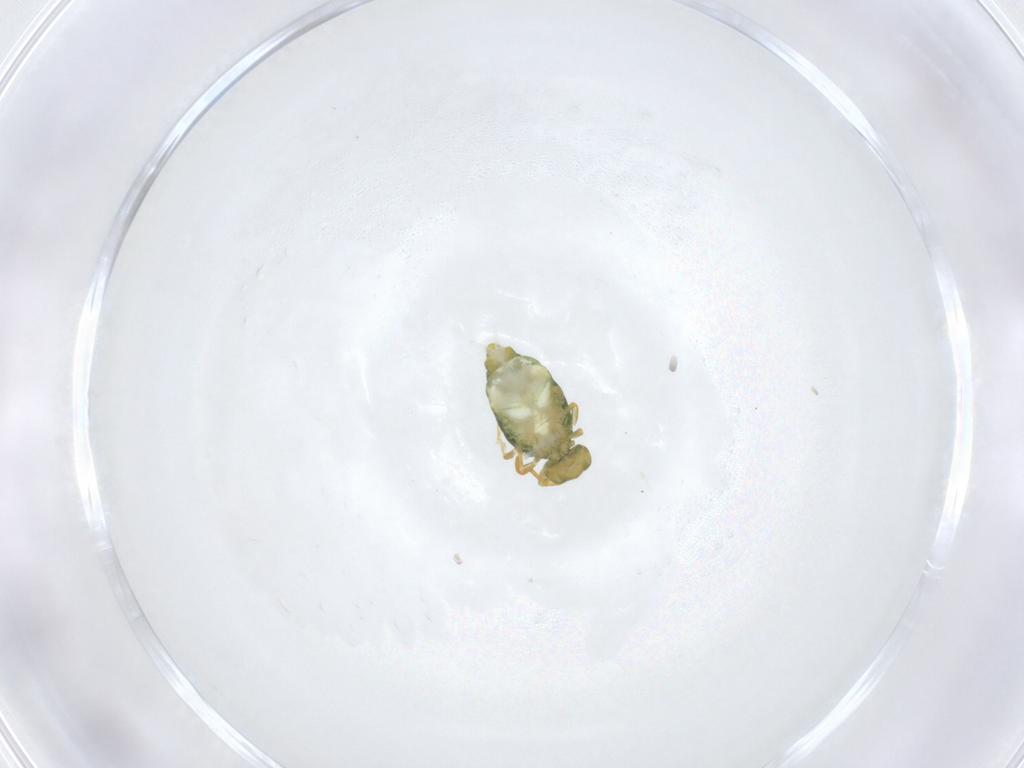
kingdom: Animalia
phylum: Arthropoda
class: Collembola
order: Symphypleona
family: Katiannidae
